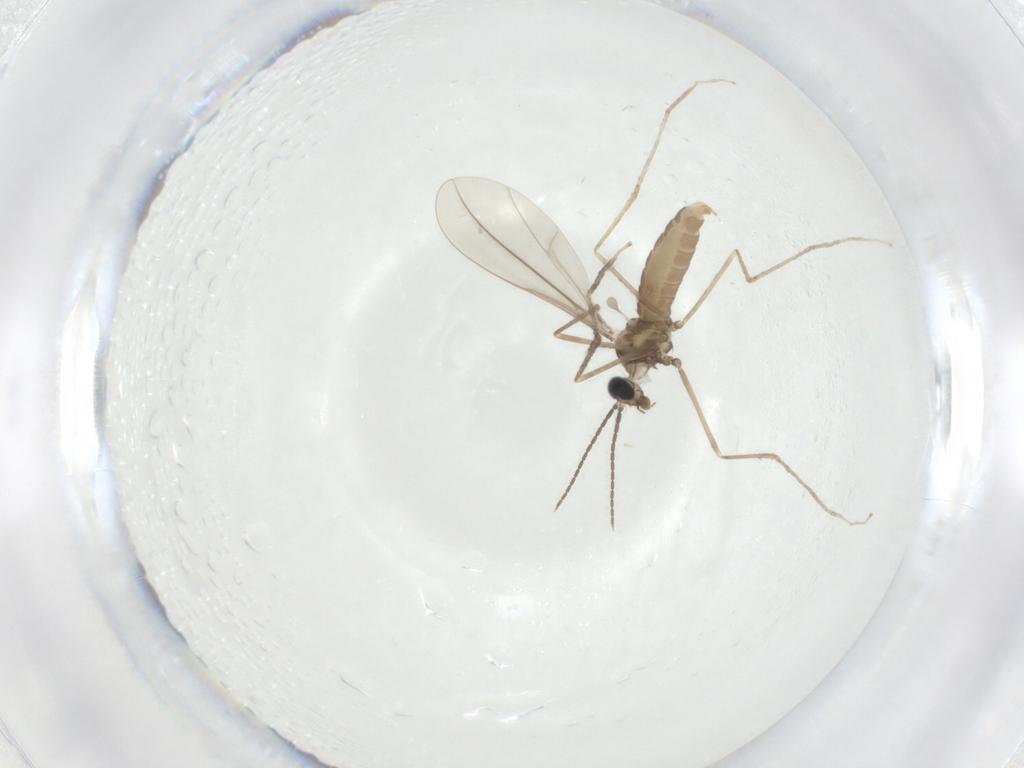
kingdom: Animalia
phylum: Arthropoda
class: Insecta
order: Diptera
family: Cecidomyiidae
